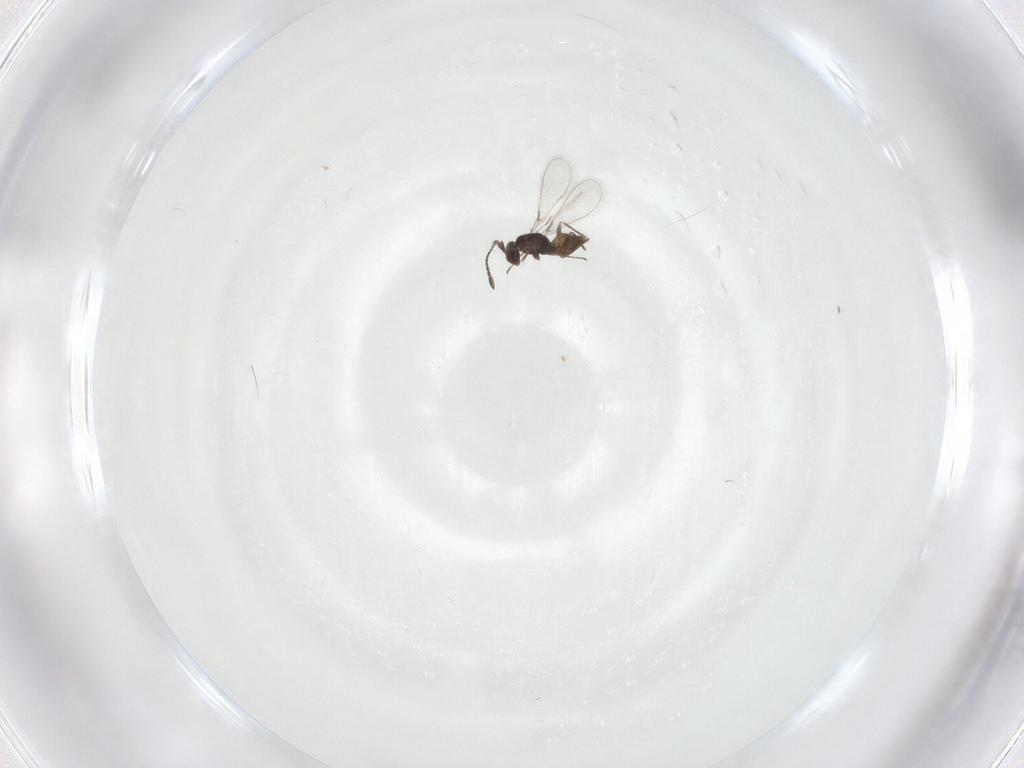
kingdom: Animalia
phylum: Arthropoda
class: Insecta
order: Hymenoptera
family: Mymaridae
